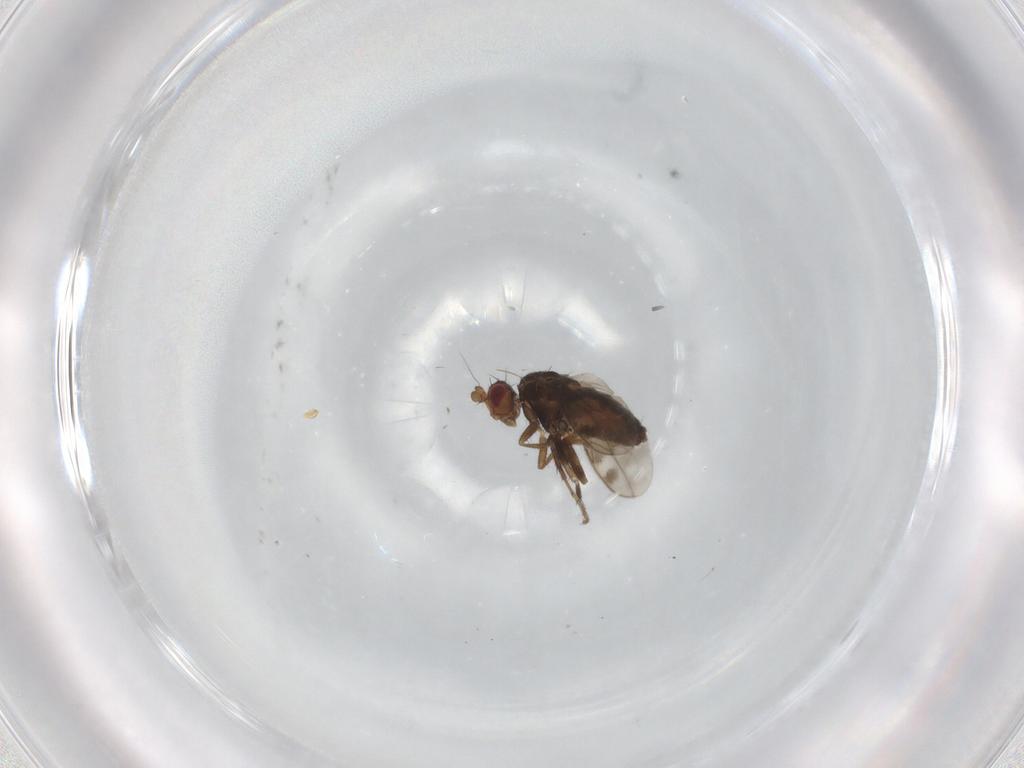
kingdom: Animalia
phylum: Arthropoda
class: Insecta
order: Diptera
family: Sphaeroceridae
